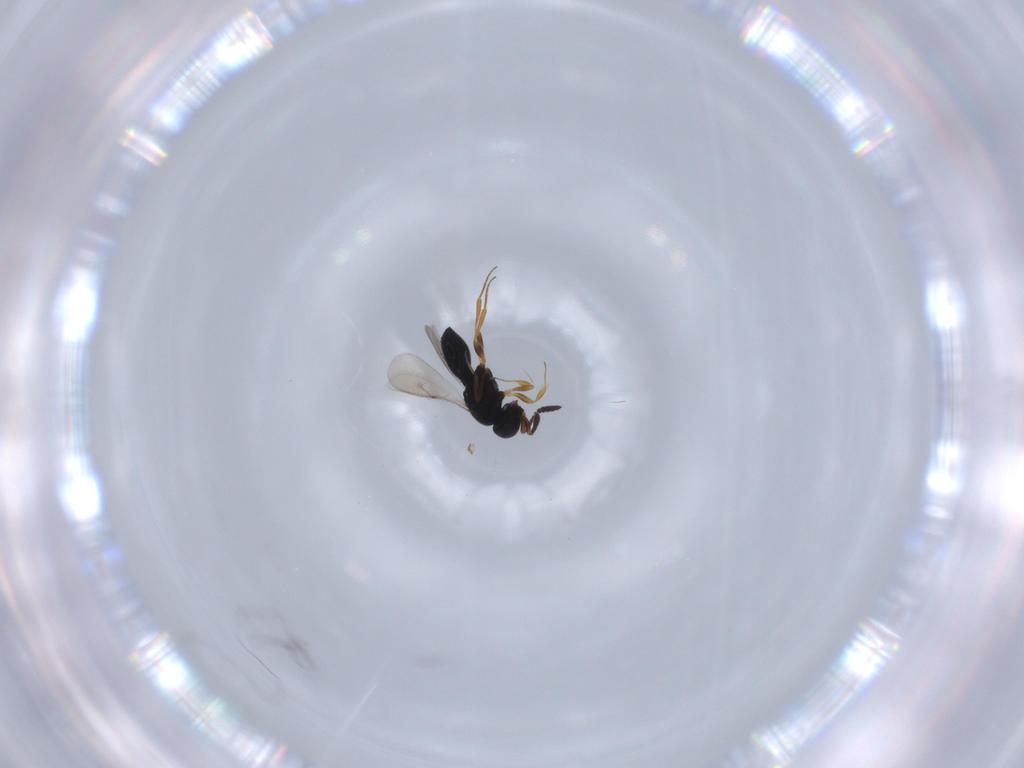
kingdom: Animalia
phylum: Arthropoda
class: Insecta
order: Hymenoptera
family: Scelionidae
